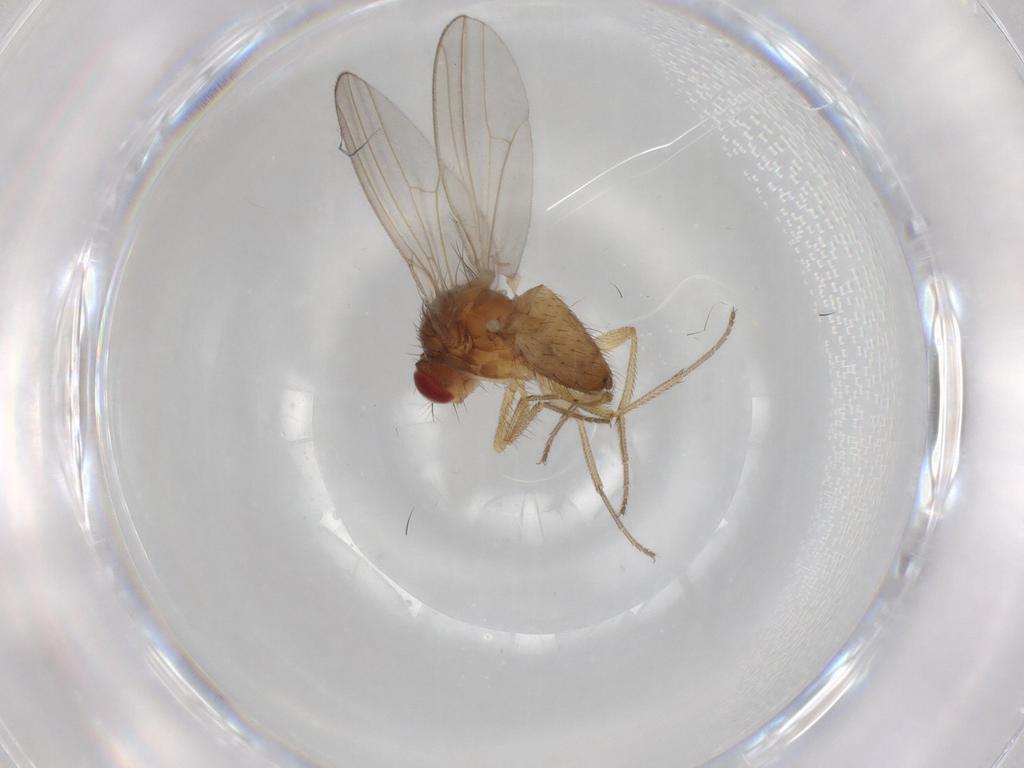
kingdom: Animalia
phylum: Arthropoda
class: Insecta
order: Diptera
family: Drosophilidae
